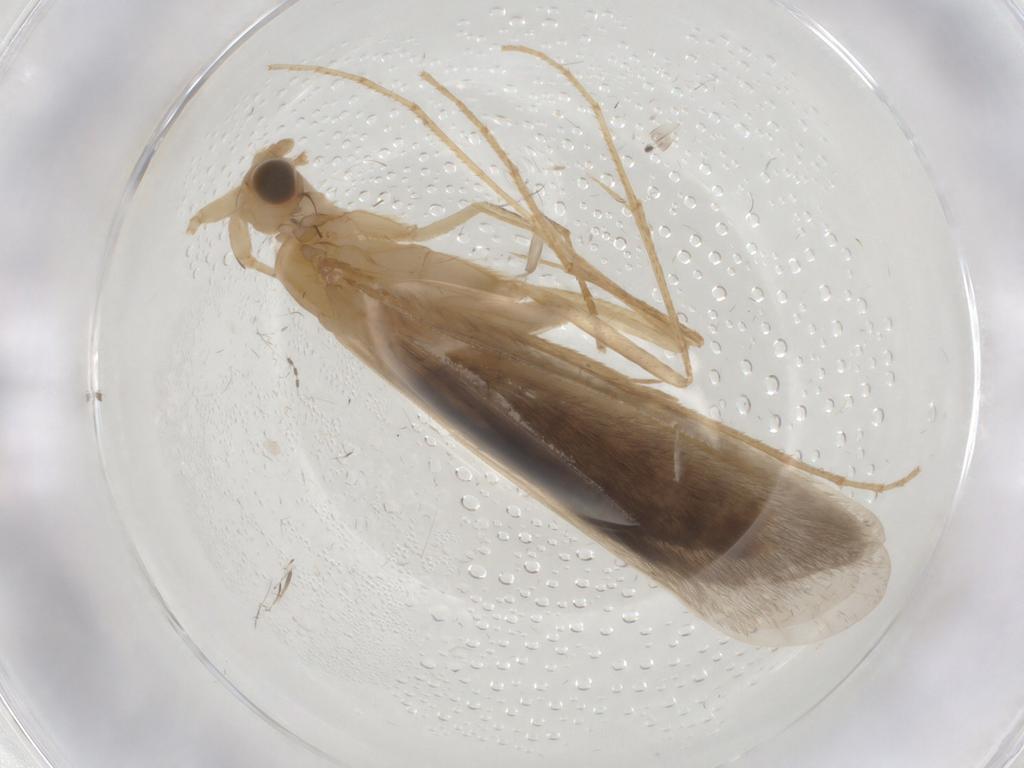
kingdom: Animalia
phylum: Arthropoda
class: Insecta
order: Trichoptera
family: Leptoceridae
